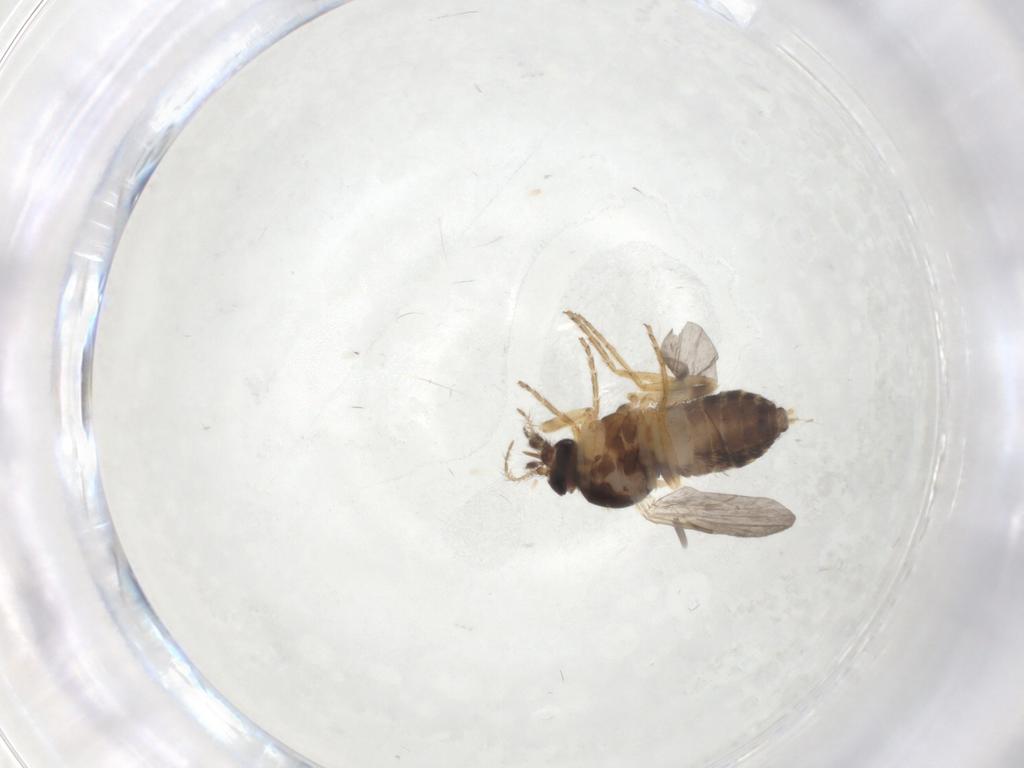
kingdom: Animalia
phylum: Arthropoda
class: Insecta
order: Diptera
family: Ceratopogonidae
